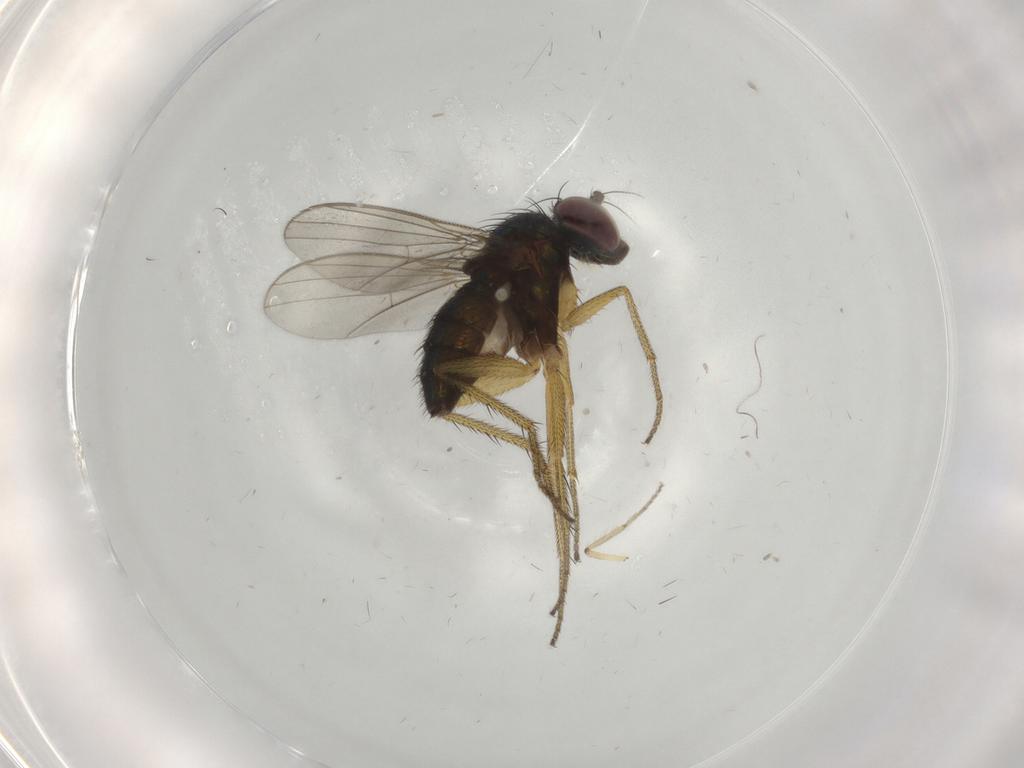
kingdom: Animalia
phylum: Arthropoda
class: Insecta
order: Diptera
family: Ceratopogonidae
